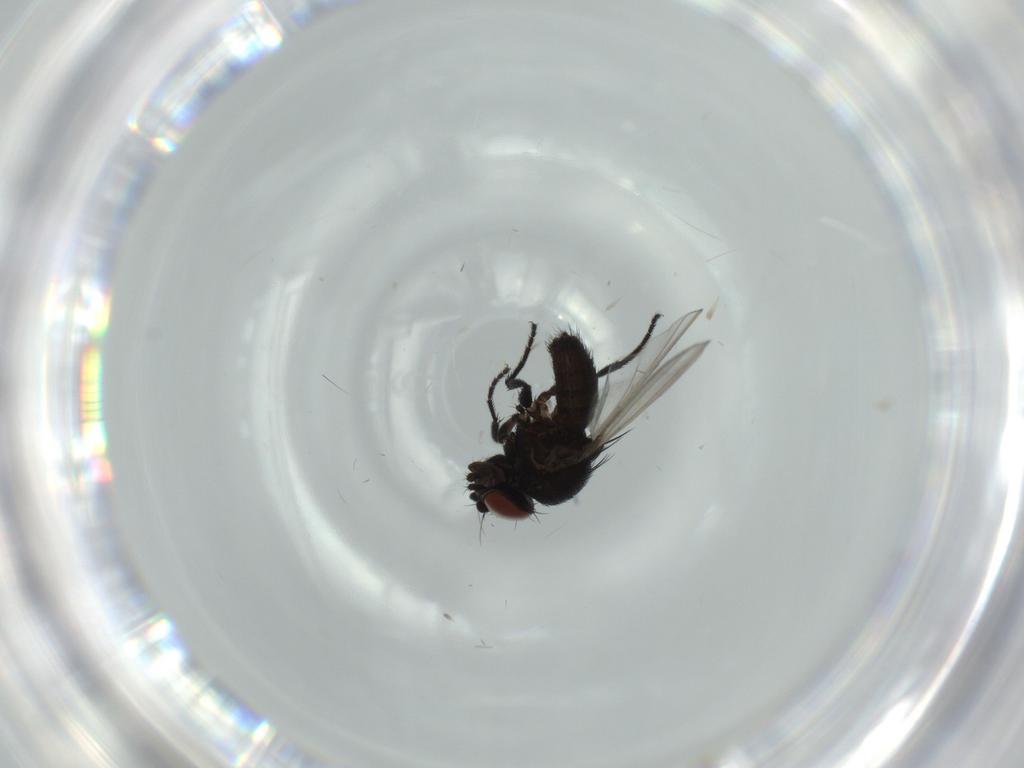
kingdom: Animalia
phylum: Arthropoda
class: Insecta
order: Diptera
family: Milichiidae
